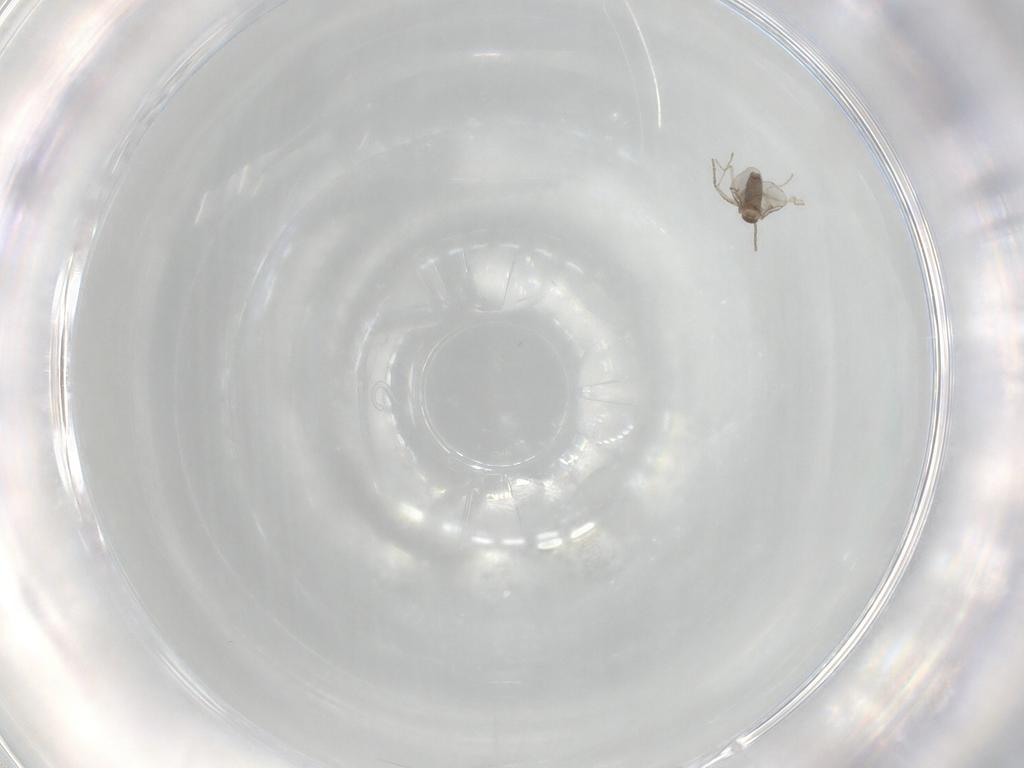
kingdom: Animalia
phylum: Arthropoda
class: Insecta
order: Diptera
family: Cecidomyiidae
